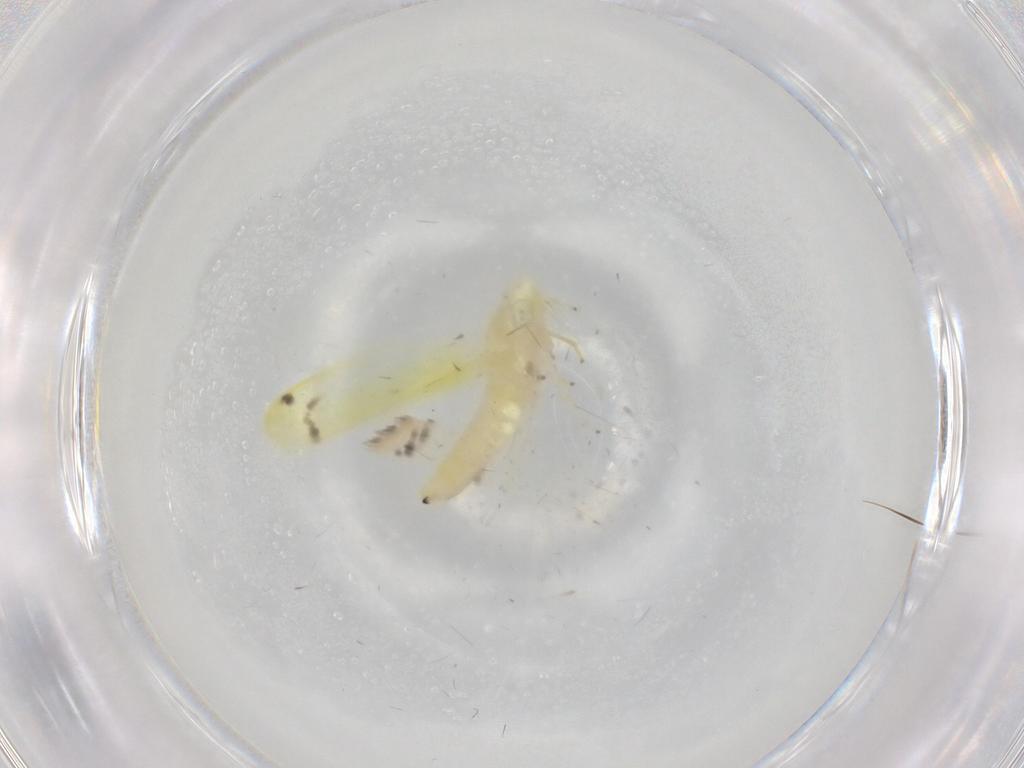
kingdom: Animalia
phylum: Arthropoda
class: Insecta
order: Hemiptera
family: Cicadellidae
